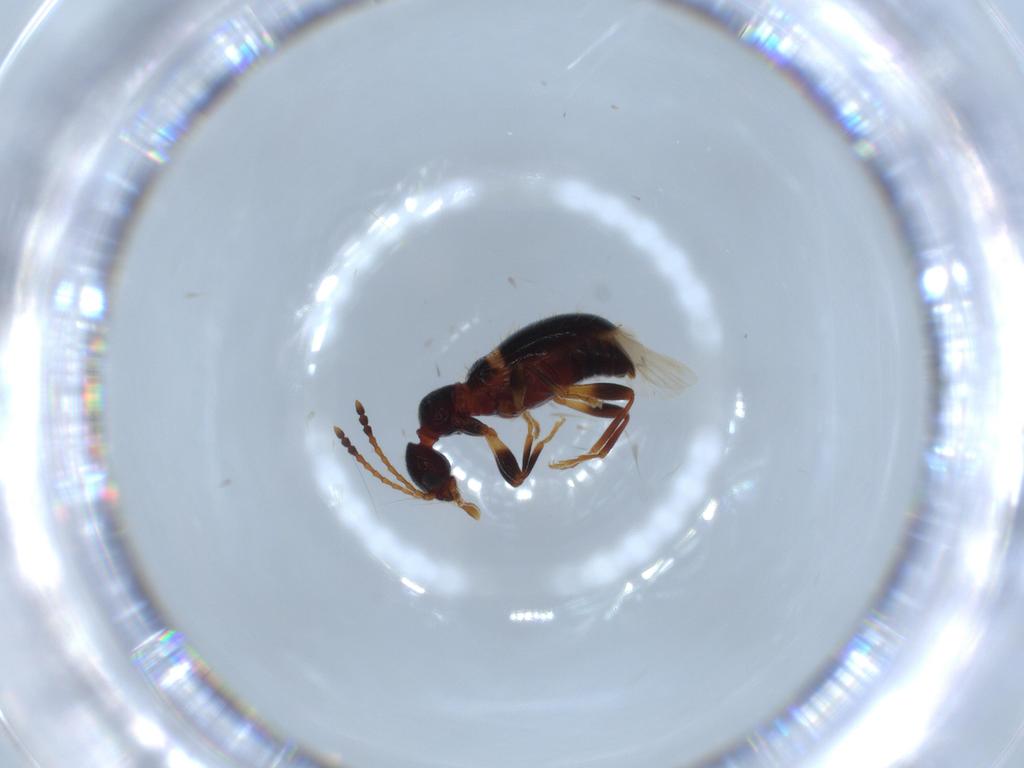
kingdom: Animalia
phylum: Arthropoda
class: Insecta
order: Coleoptera
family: Anthicidae
